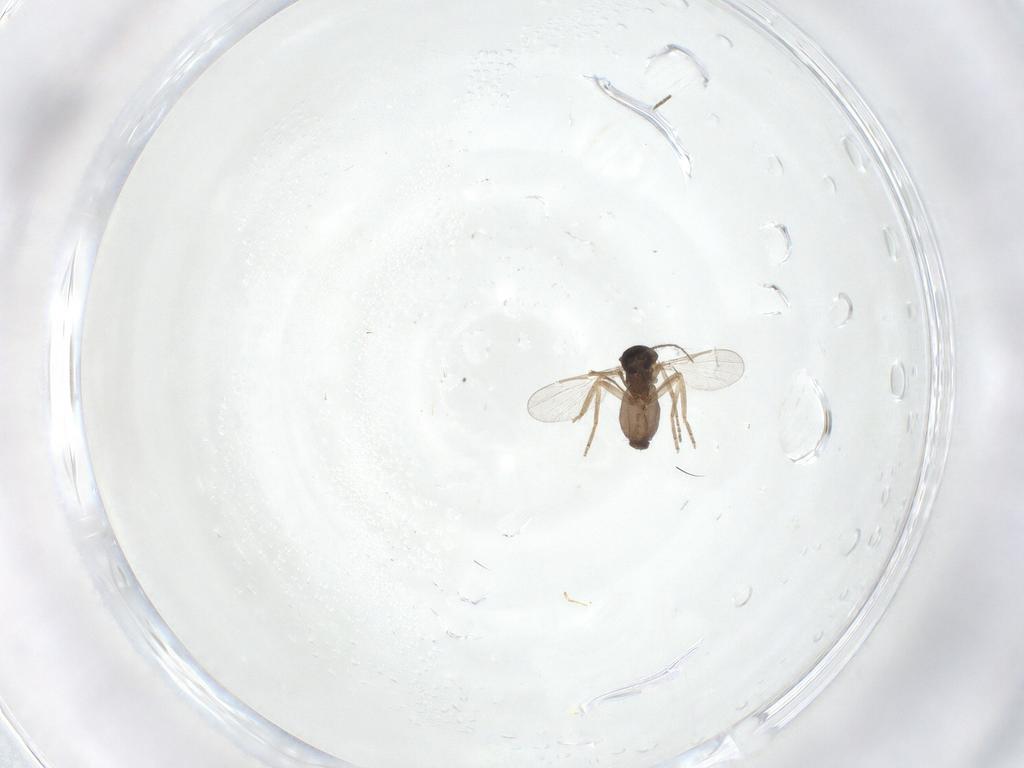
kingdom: Animalia
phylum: Arthropoda
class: Insecta
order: Diptera
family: Ceratopogonidae
